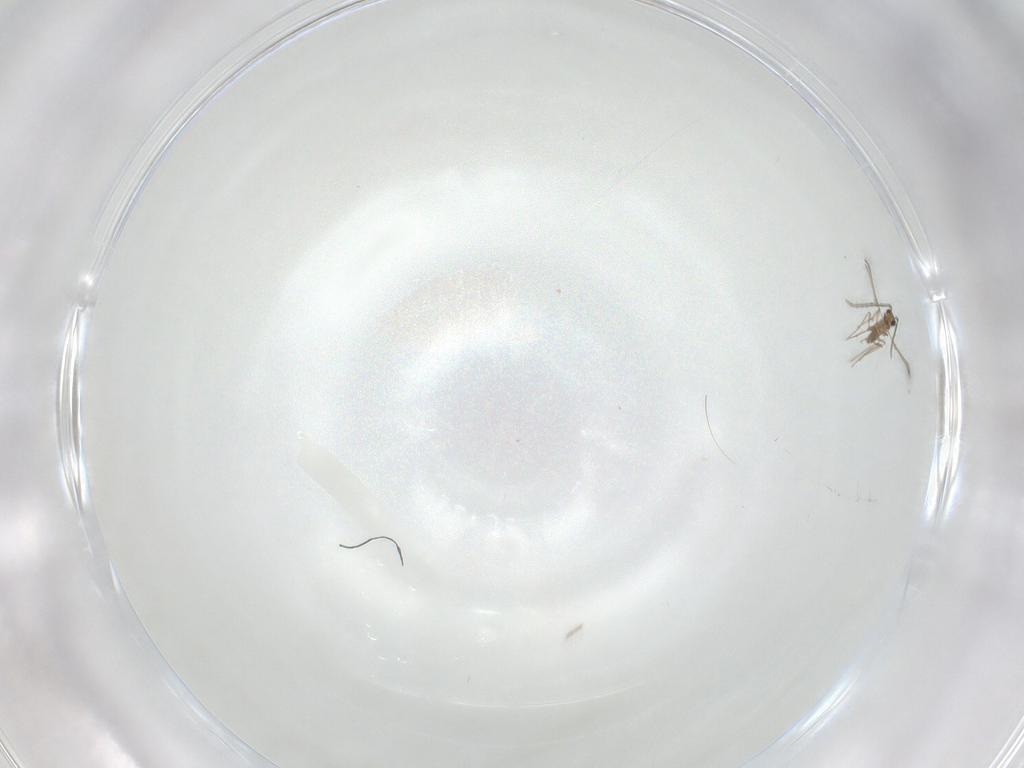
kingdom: Animalia
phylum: Arthropoda
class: Insecta
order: Hymenoptera
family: Mymaridae
